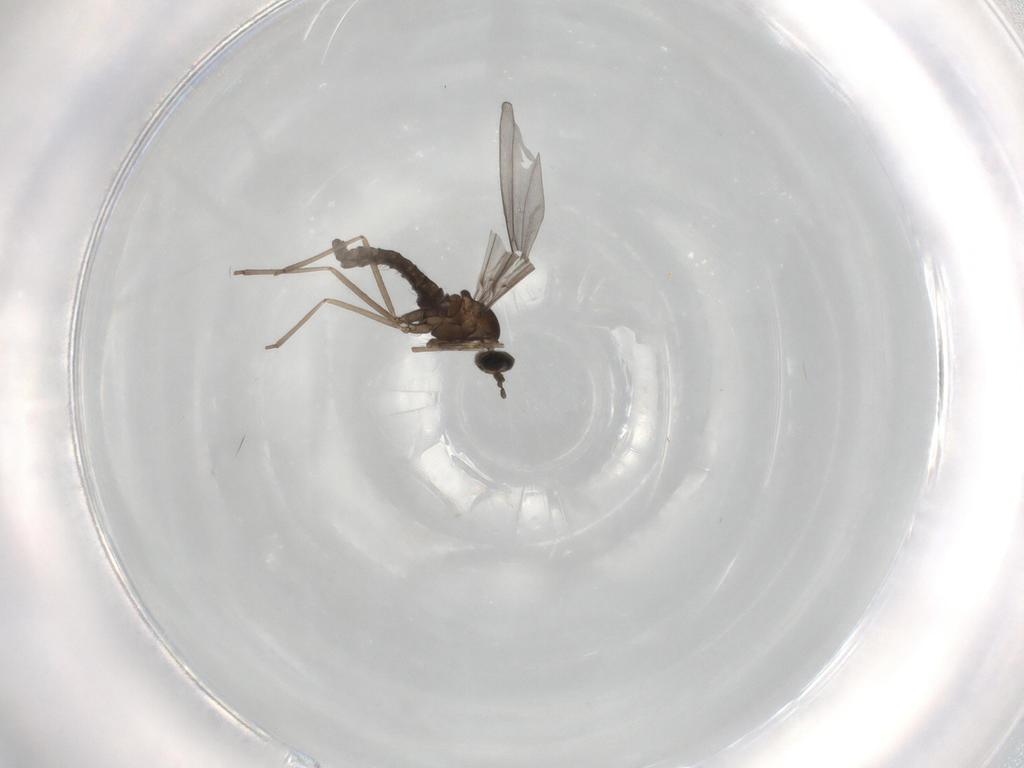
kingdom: Animalia
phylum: Arthropoda
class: Insecta
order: Diptera
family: Cecidomyiidae
